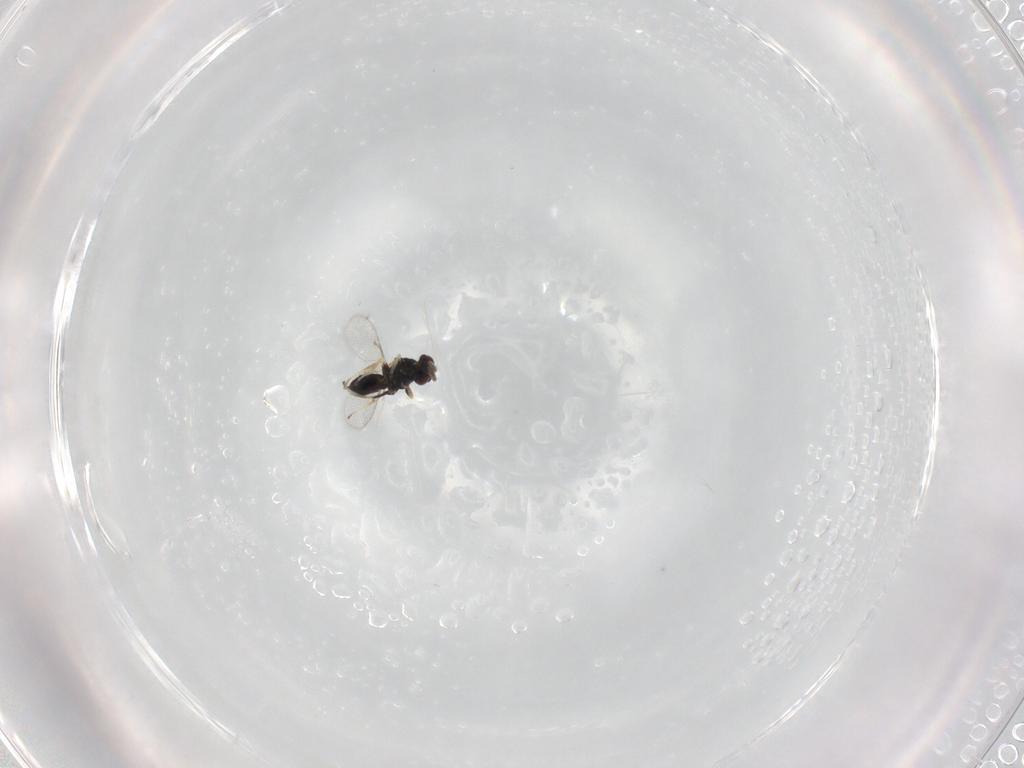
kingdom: Animalia
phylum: Arthropoda
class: Insecta
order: Hymenoptera
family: Eulophidae
